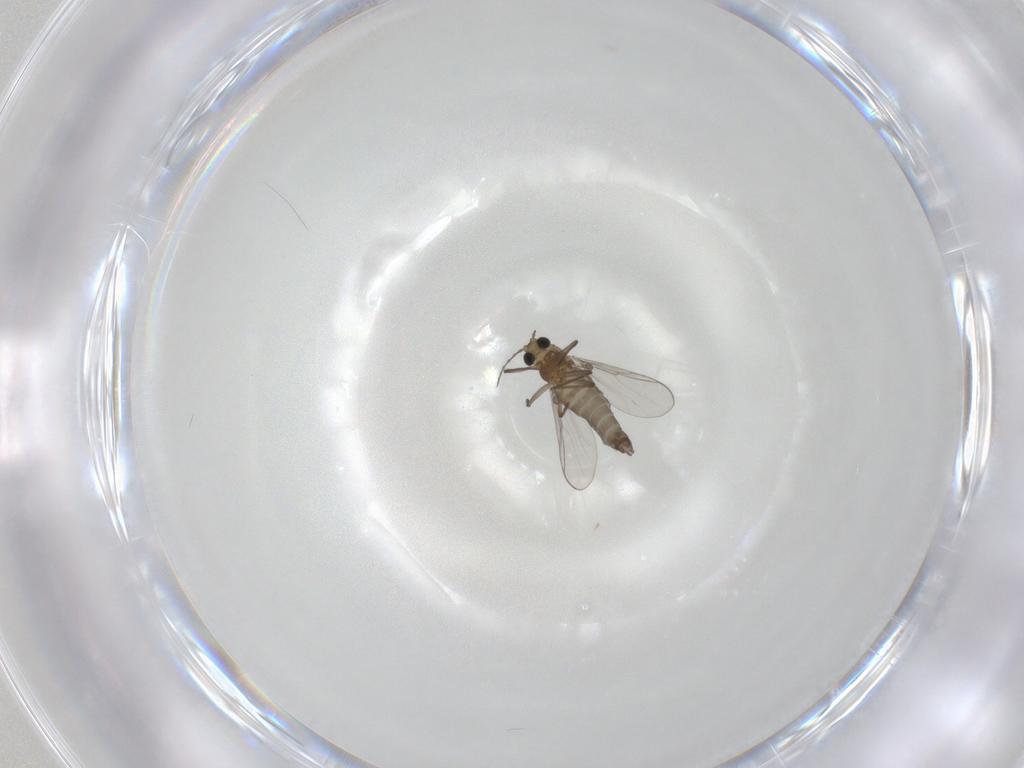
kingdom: Animalia
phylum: Arthropoda
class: Insecta
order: Diptera
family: Chironomidae
